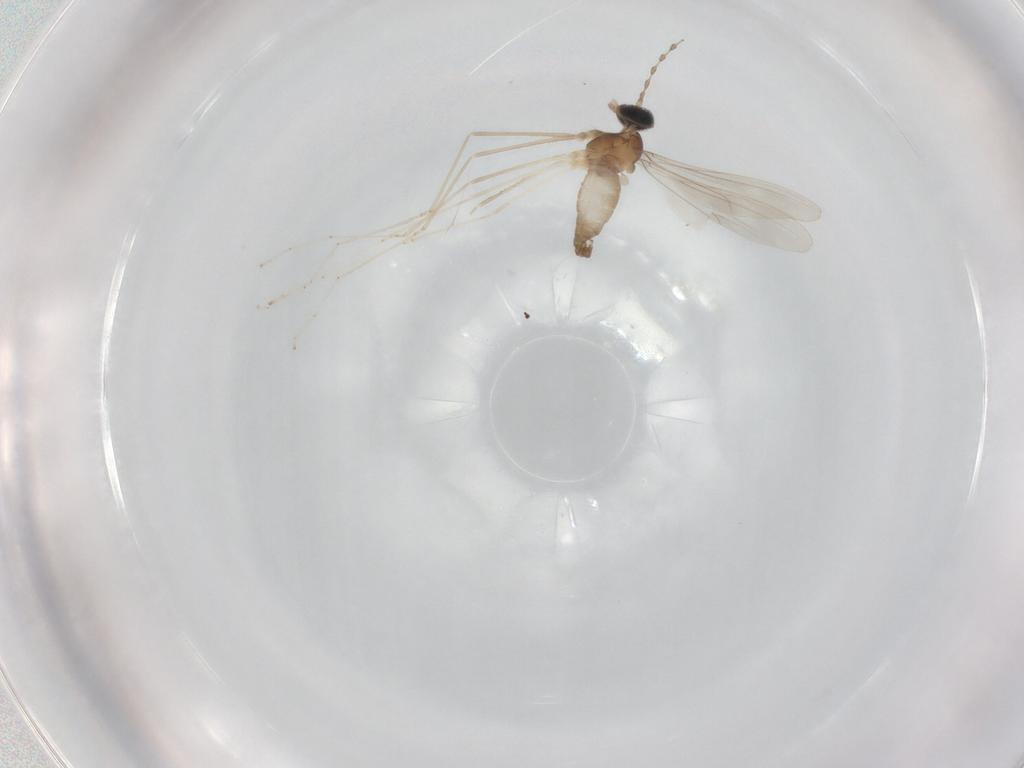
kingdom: Animalia
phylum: Arthropoda
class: Insecta
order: Diptera
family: Cecidomyiidae
